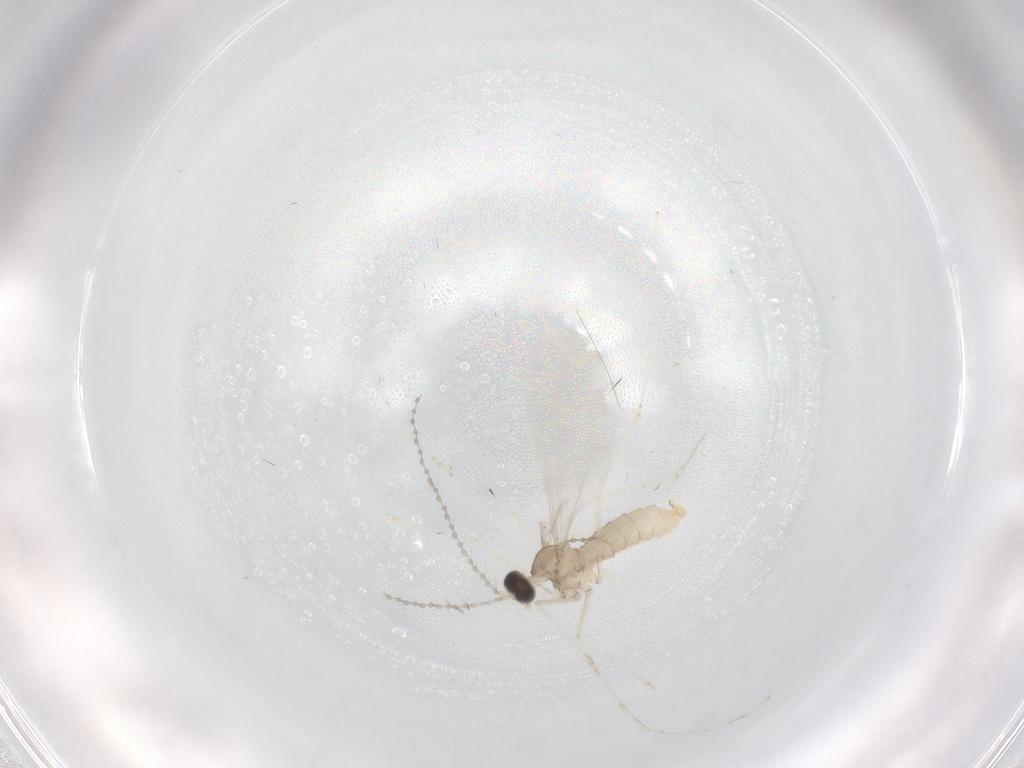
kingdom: Animalia
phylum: Arthropoda
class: Insecta
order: Diptera
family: Cecidomyiidae
